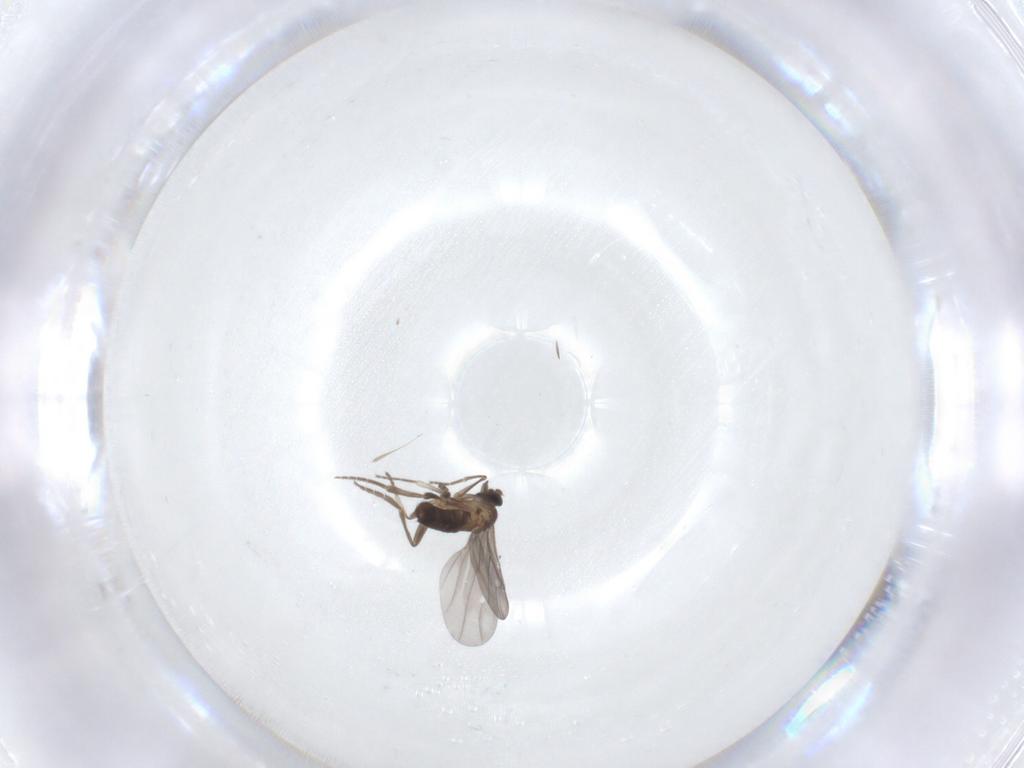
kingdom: Animalia
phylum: Arthropoda
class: Insecta
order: Diptera
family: Phoridae
